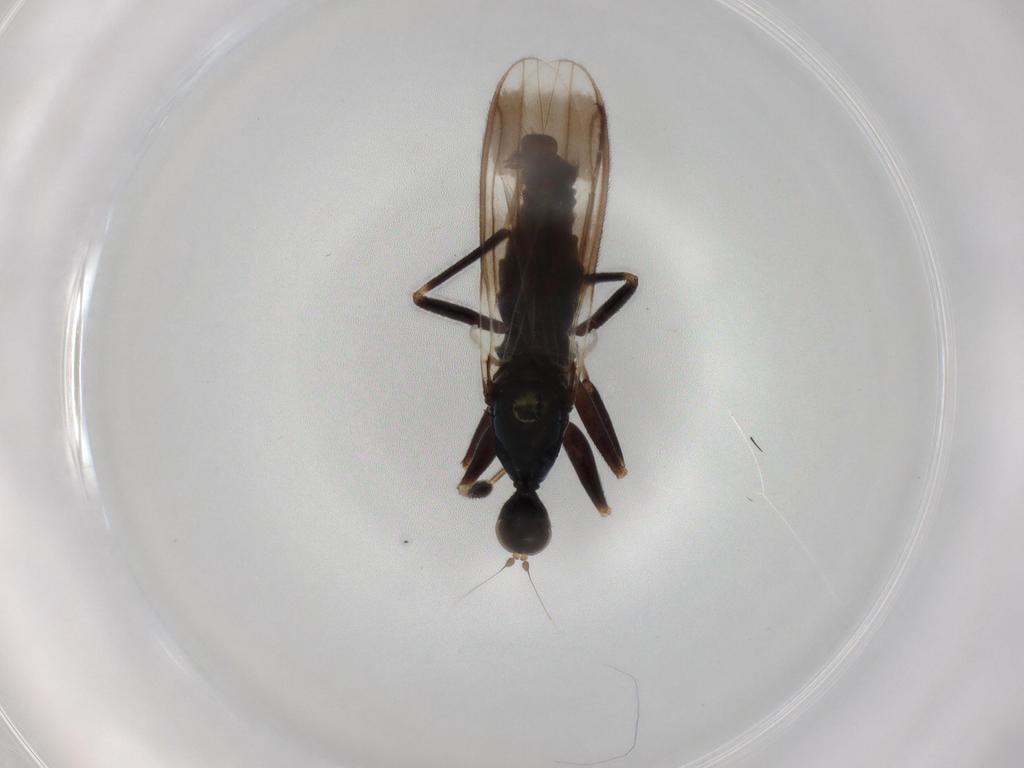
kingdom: Animalia
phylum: Arthropoda
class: Insecta
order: Diptera
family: Hybotidae
